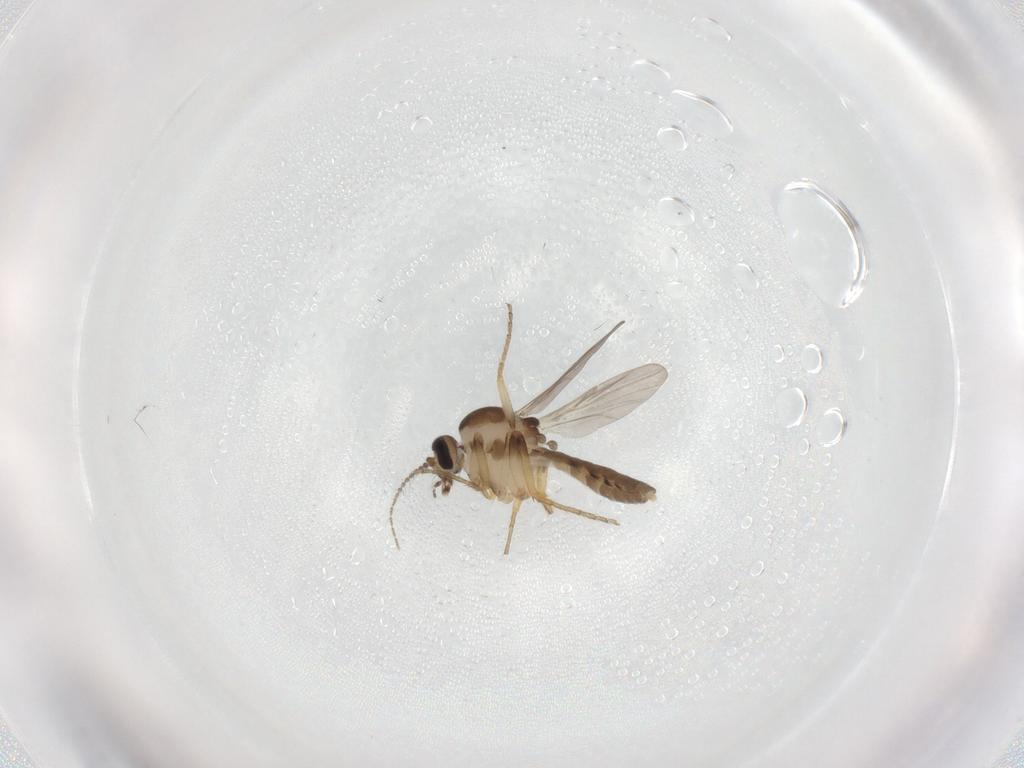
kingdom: Animalia
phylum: Arthropoda
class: Insecta
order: Diptera
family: Ceratopogonidae
